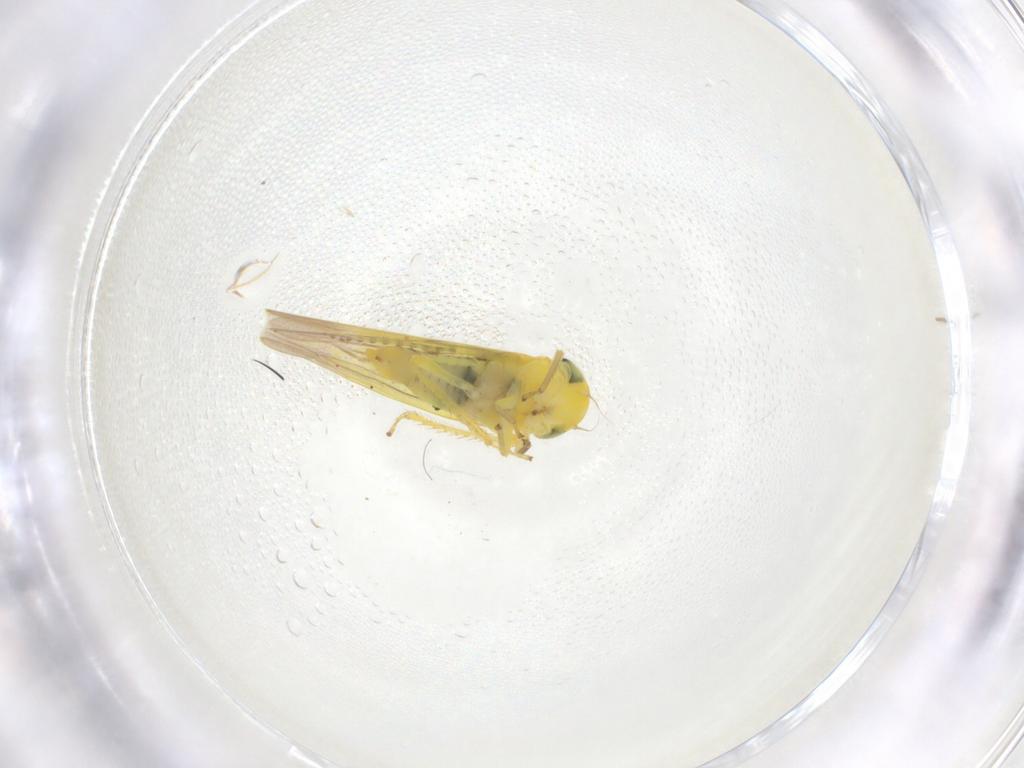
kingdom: Animalia
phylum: Arthropoda
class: Insecta
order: Hemiptera
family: Cicadellidae
